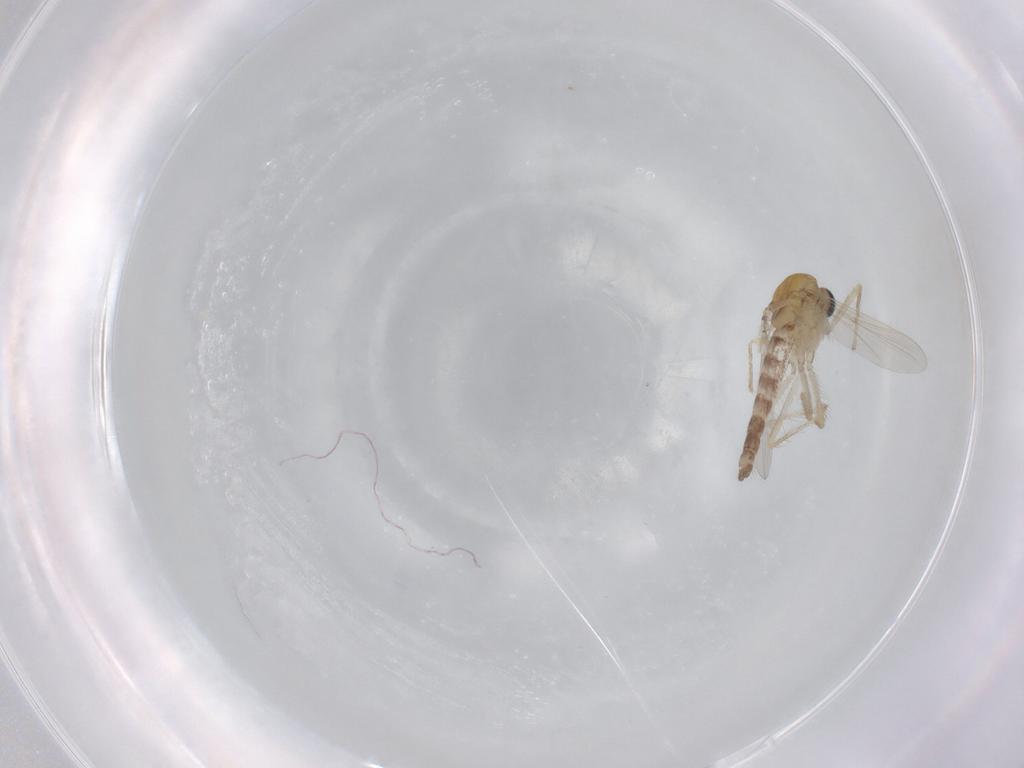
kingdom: Animalia
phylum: Arthropoda
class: Insecta
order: Diptera
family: Chironomidae
